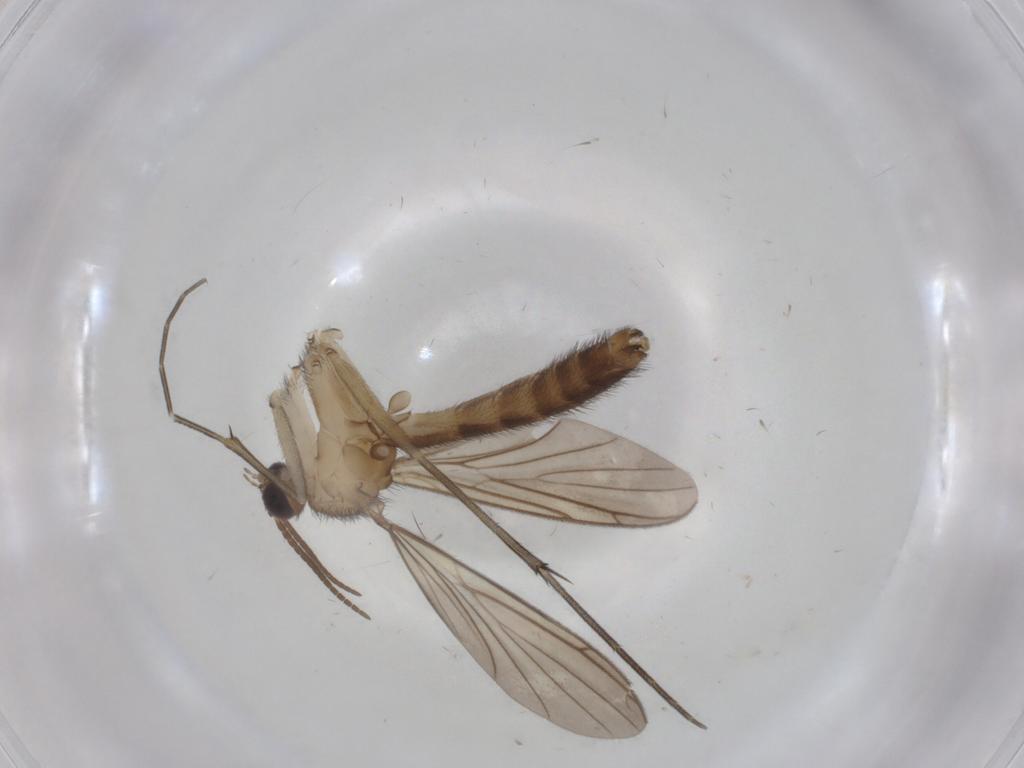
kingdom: Animalia
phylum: Arthropoda
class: Insecta
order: Diptera
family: Keroplatidae
